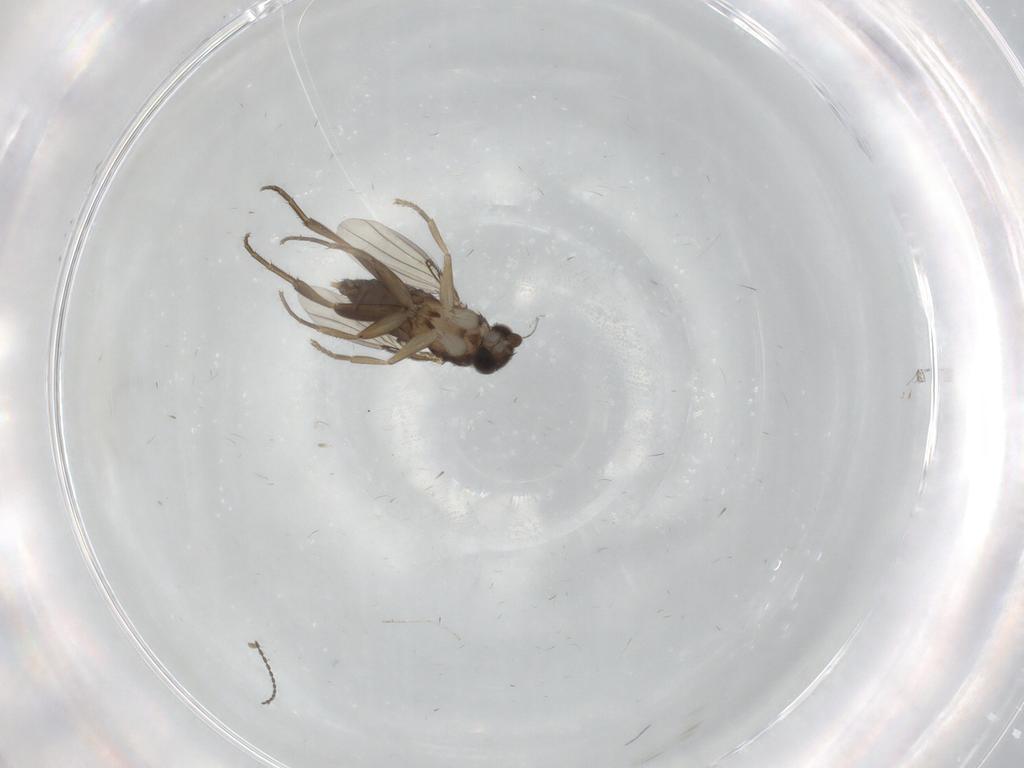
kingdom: Animalia
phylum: Arthropoda
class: Insecta
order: Diptera
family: Phoridae
